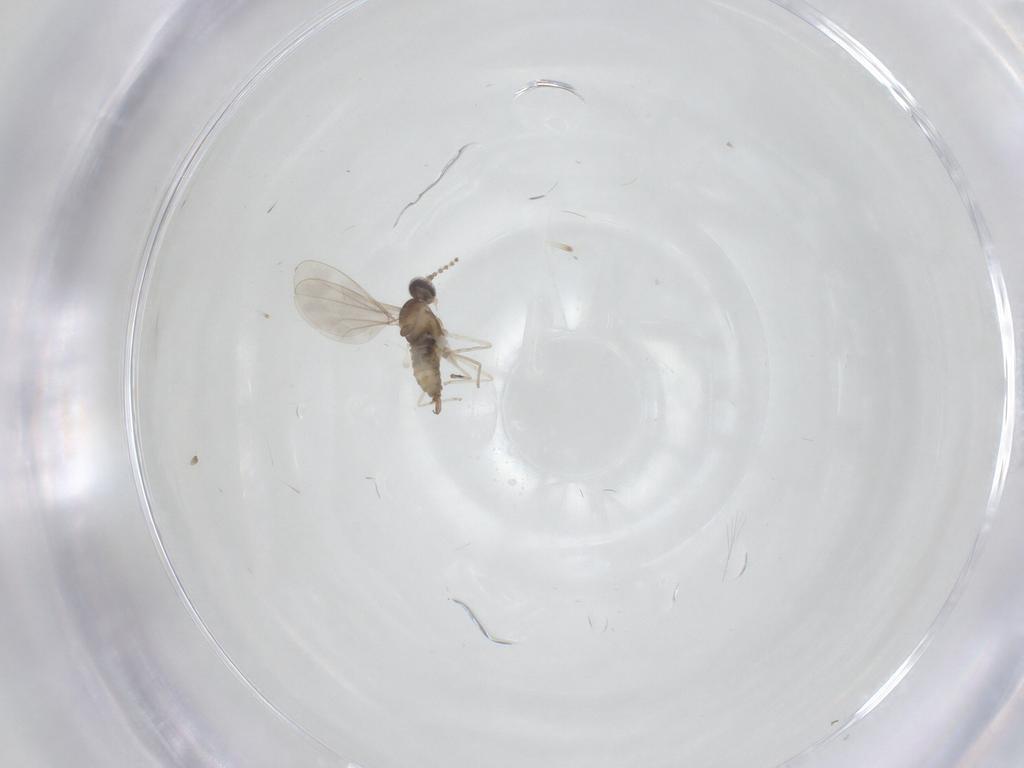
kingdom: Animalia
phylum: Arthropoda
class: Insecta
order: Diptera
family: Cecidomyiidae
